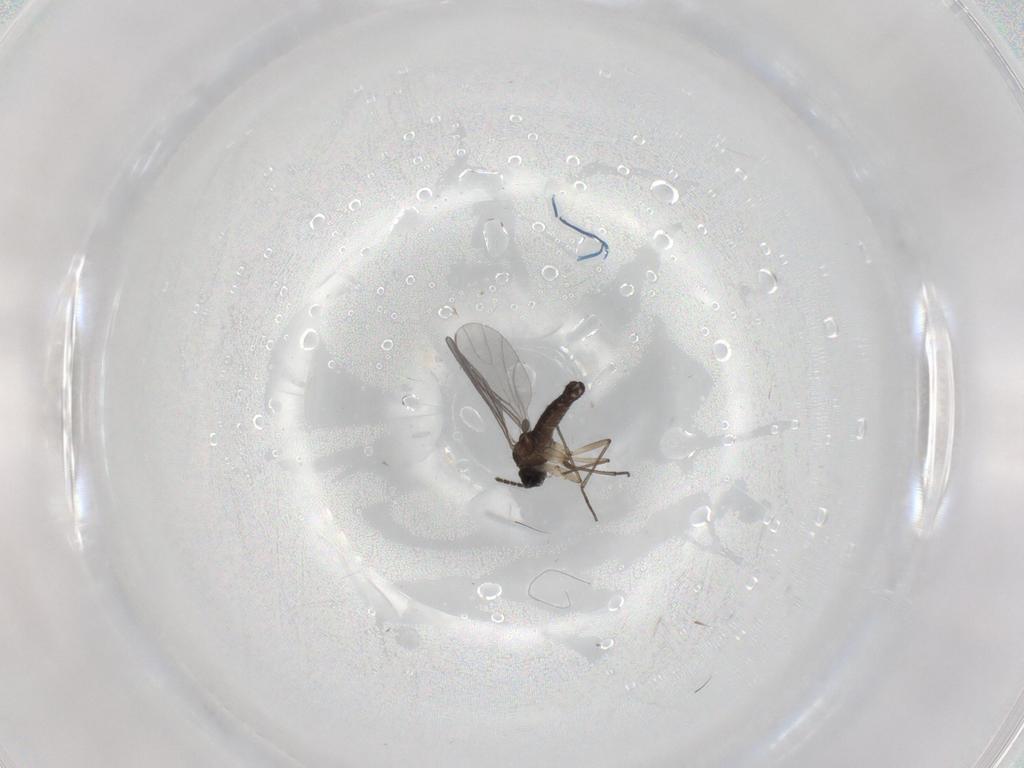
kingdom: Animalia
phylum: Arthropoda
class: Insecta
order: Diptera
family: Sciaridae
